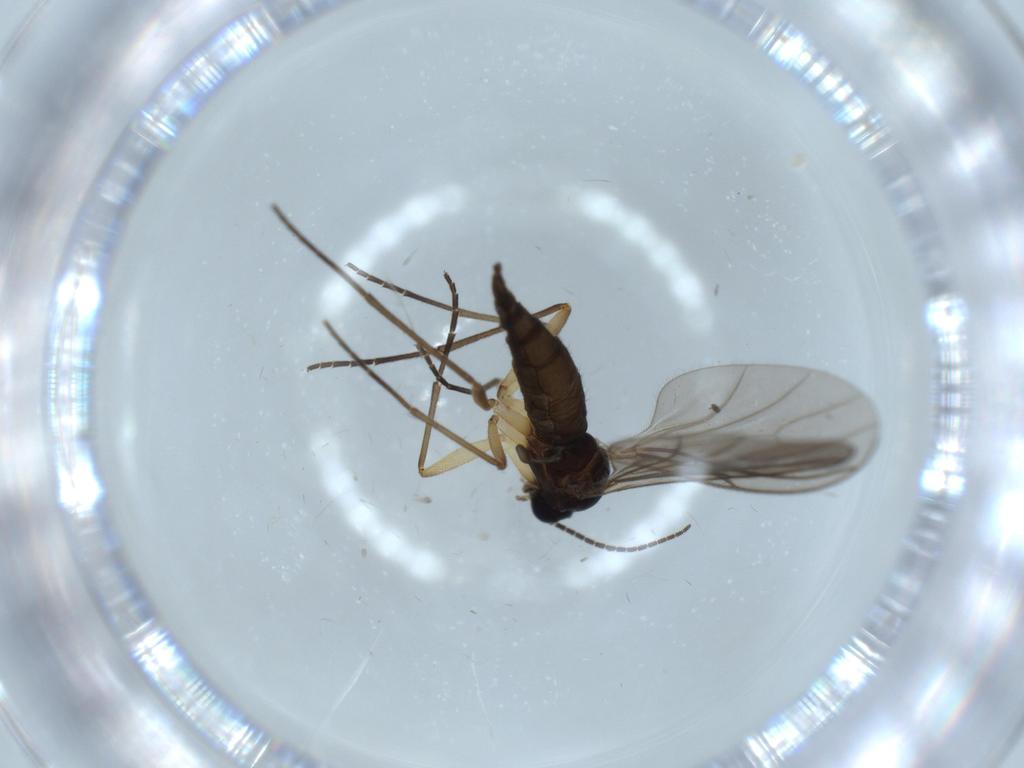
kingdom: Animalia
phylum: Arthropoda
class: Insecta
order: Diptera
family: Sciaridae
